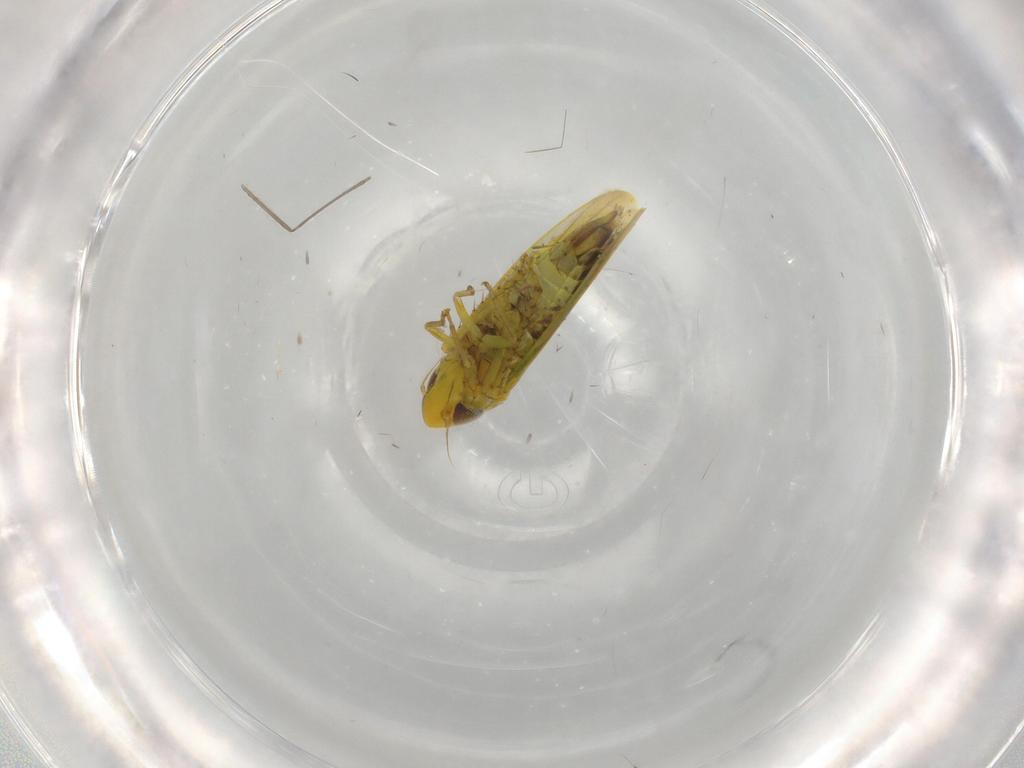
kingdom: Animalia
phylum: Arthropoda
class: Insecta
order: Hemiptera
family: Cicadellidae
